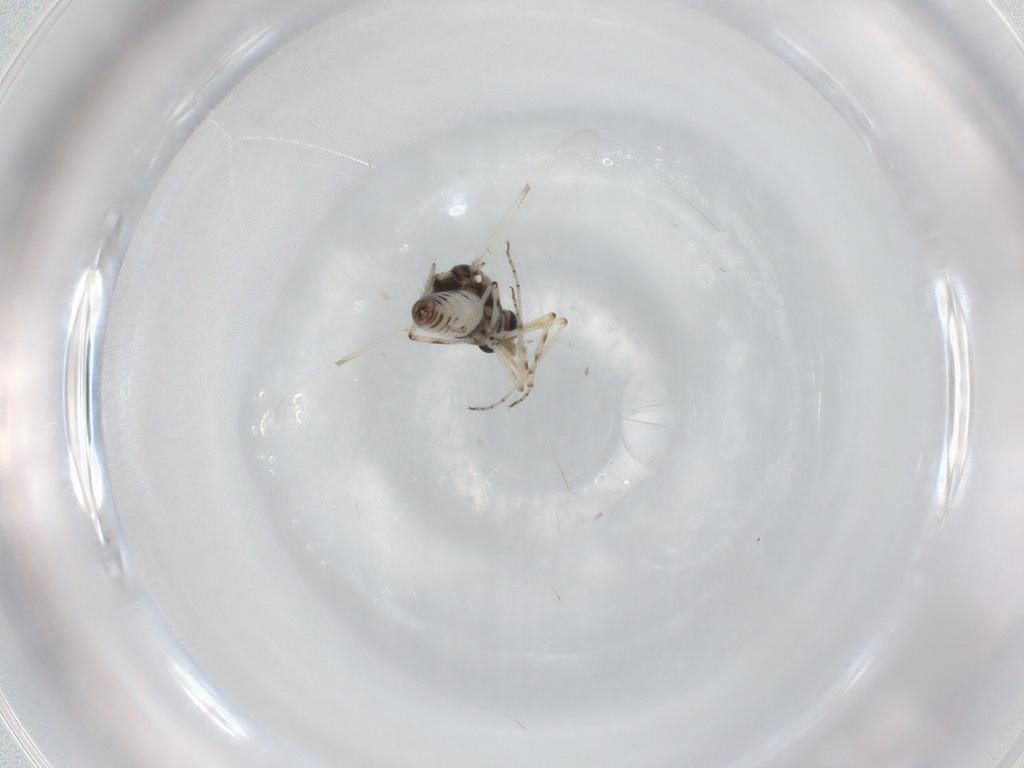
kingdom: Animalia
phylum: Arthropoda
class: Insecta
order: Diptera
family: Ceratopogonidae
